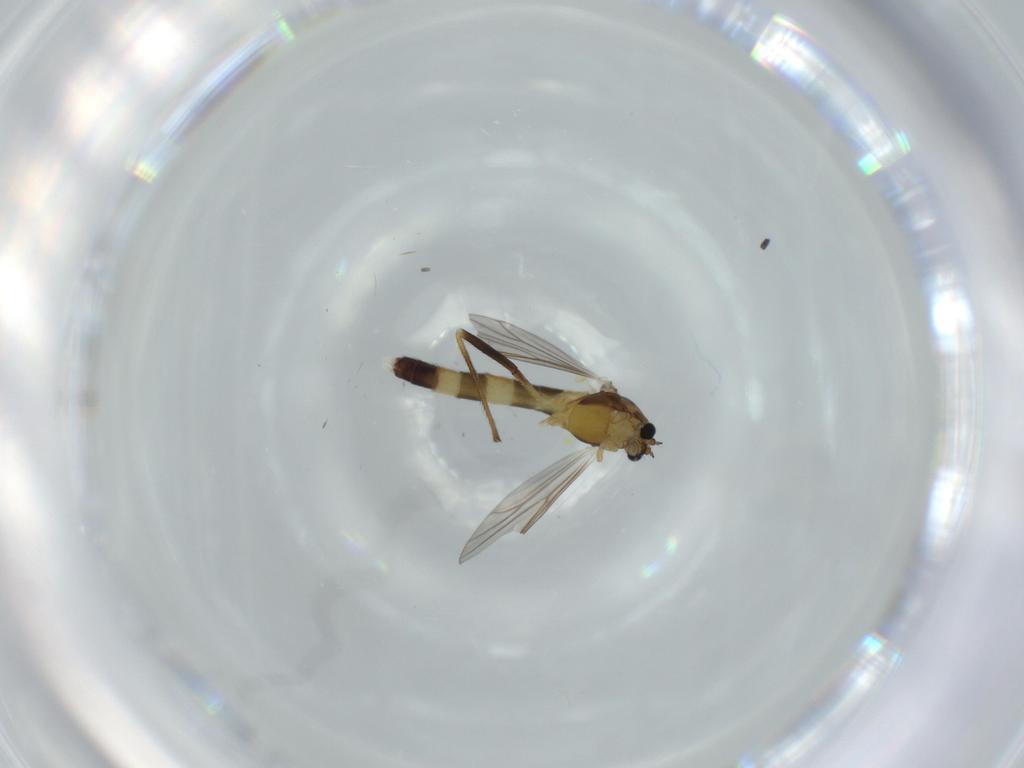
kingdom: Animalia
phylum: Arthropoda
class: Insecta
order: Diptera
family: Chironomidae
